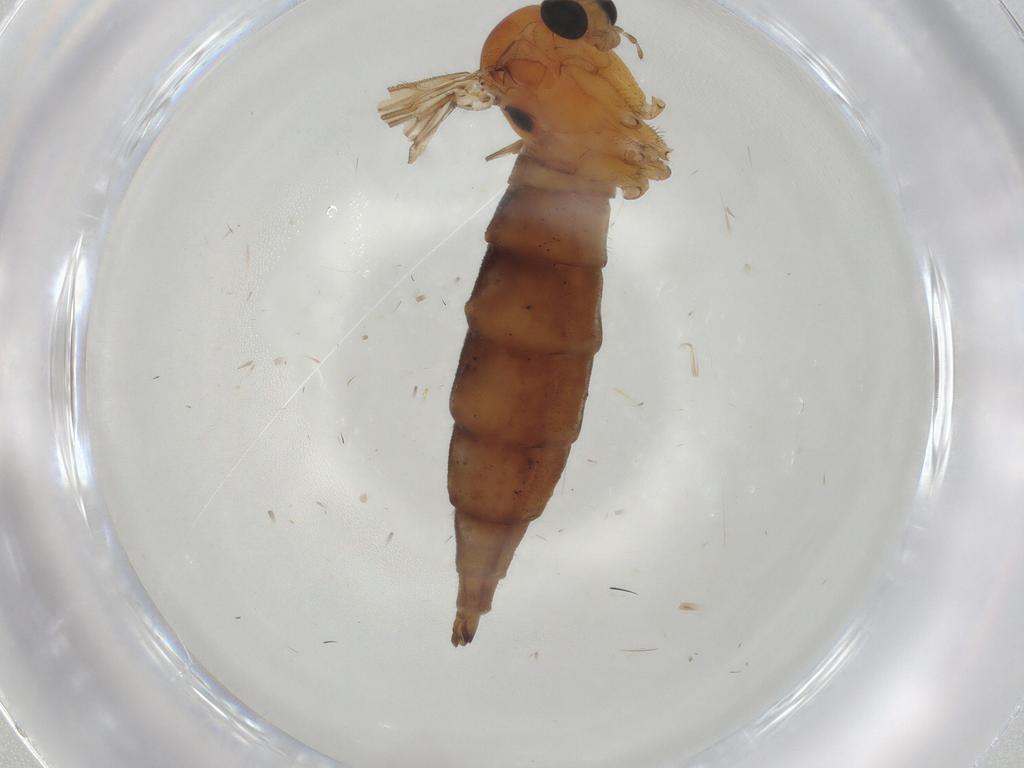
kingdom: Animalia
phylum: Arthropoda
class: Insecta
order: Diptera
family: Sciaridae
